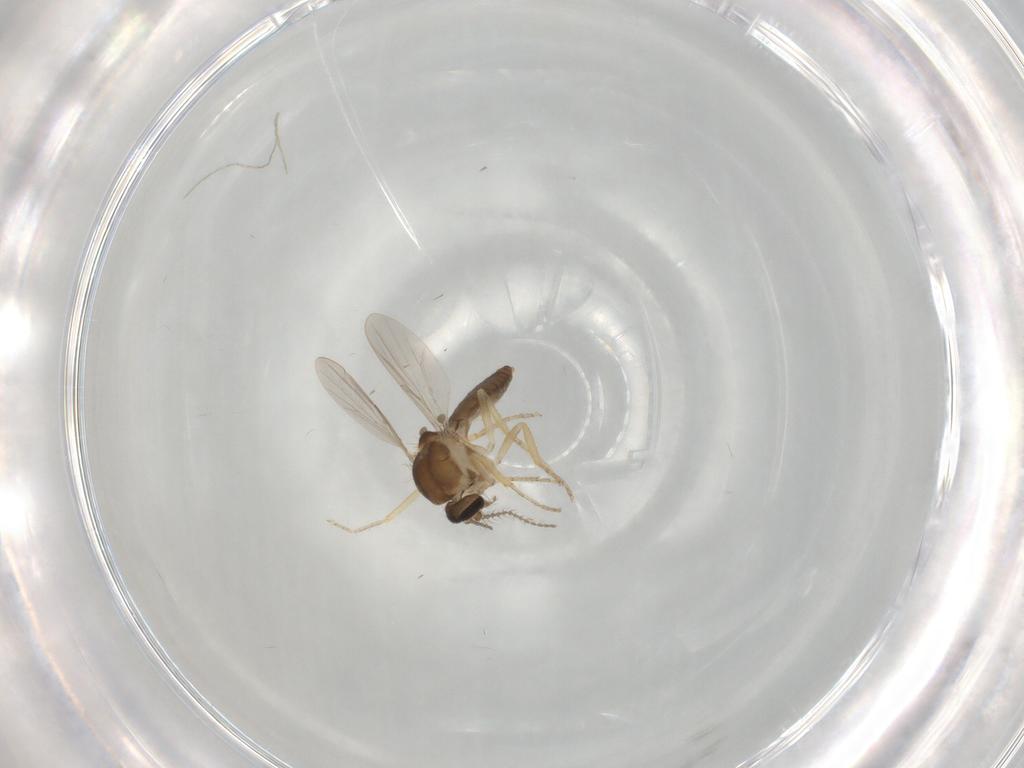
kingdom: Animalia
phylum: Arthropoda
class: Insecta
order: Diptera
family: Ceratopogonidae
